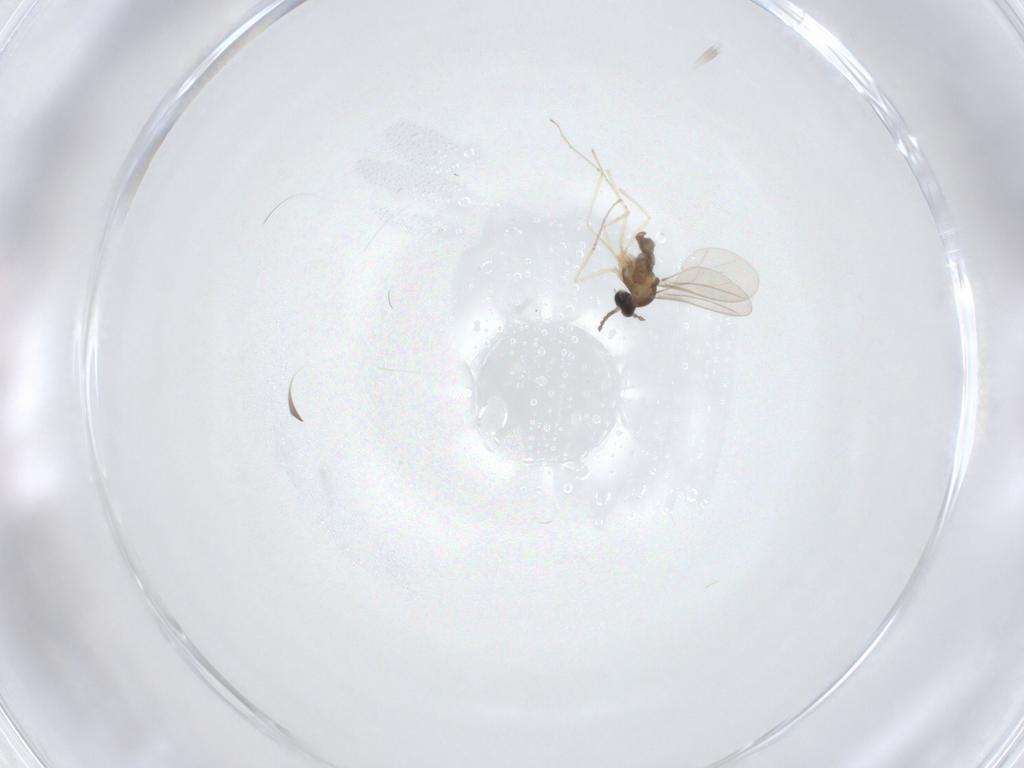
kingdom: Animalia
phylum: Arthropoda
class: Insecta
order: Diptera
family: Cecidomyiidae
